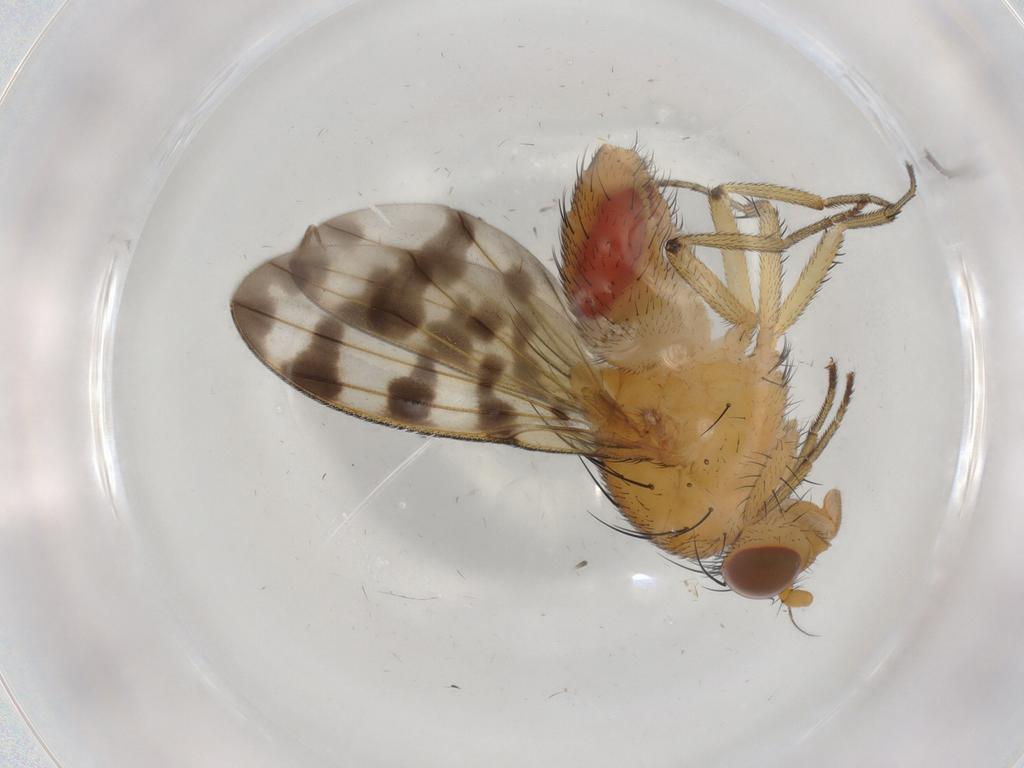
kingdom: Animalia
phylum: Arthropoda
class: Insecta
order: Diptera
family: Cecidomyiidae
